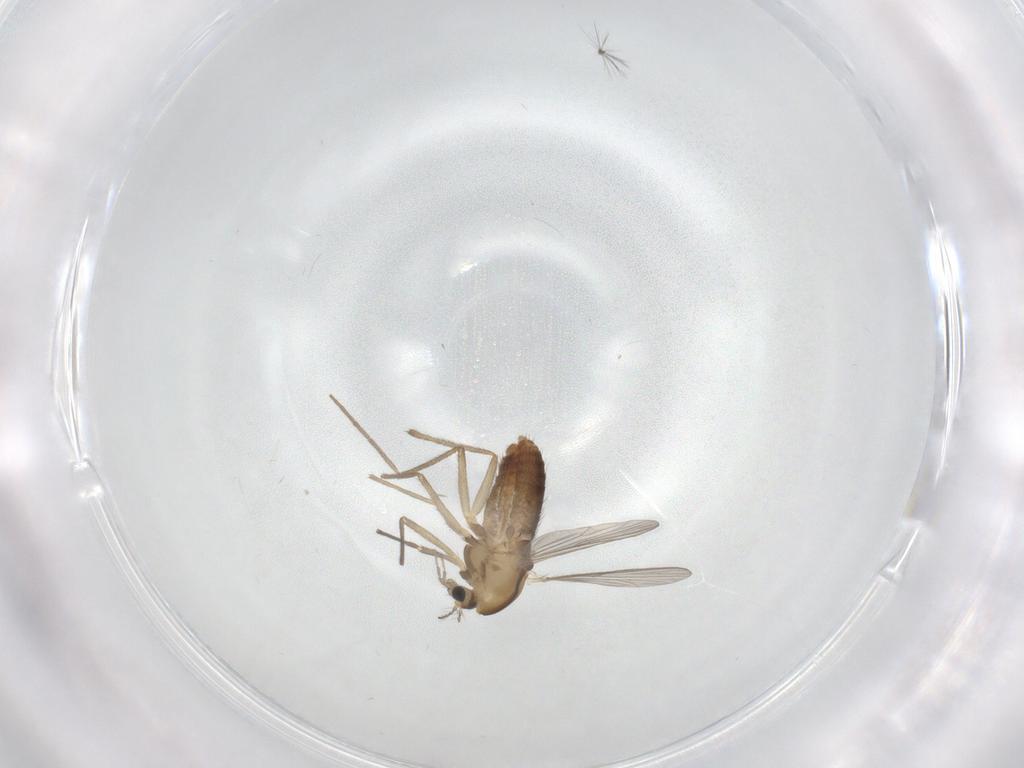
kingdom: Animalia
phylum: Arthropoda
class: Insecta
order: Diptera
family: Chironomidae
